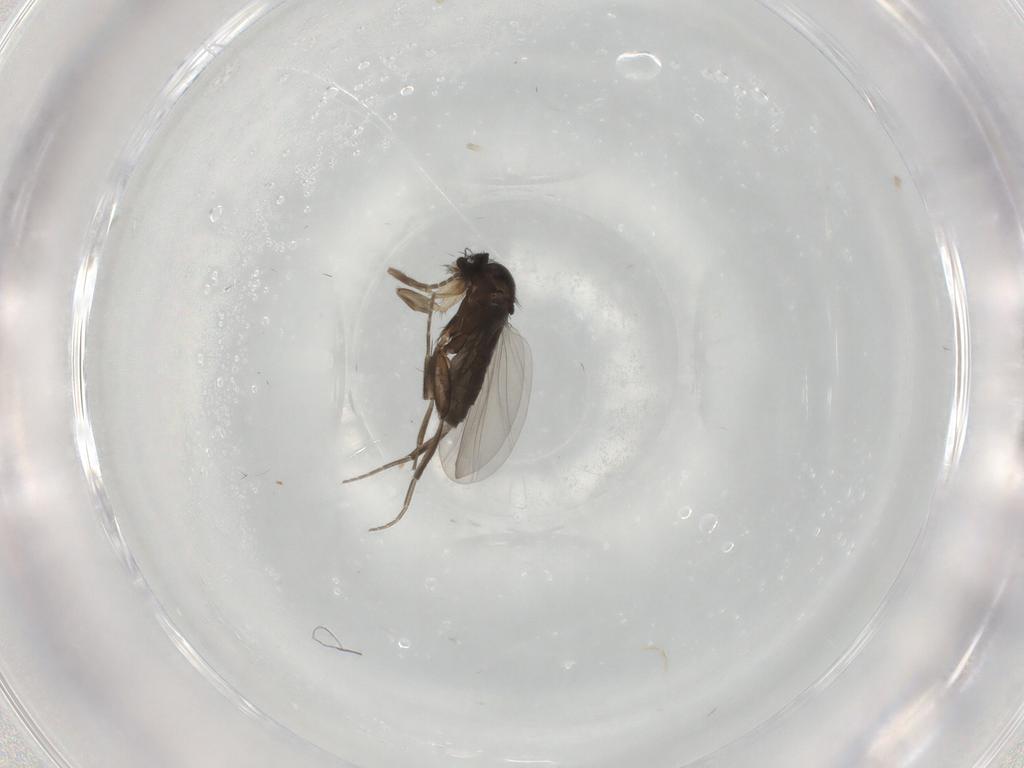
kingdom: Animalia
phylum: Arthropoda
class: Insecta
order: Diptera
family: Phoridae
